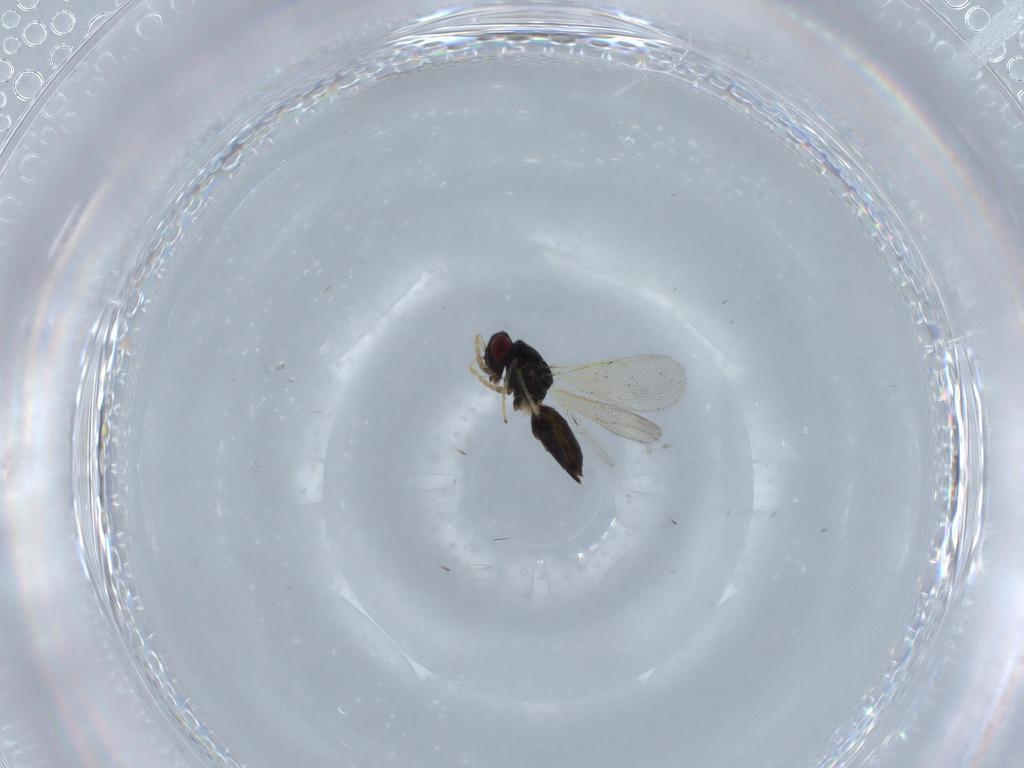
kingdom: Animalia
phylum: Arthropoda
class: Insecta
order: Hymenoptera
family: Eulophidae
